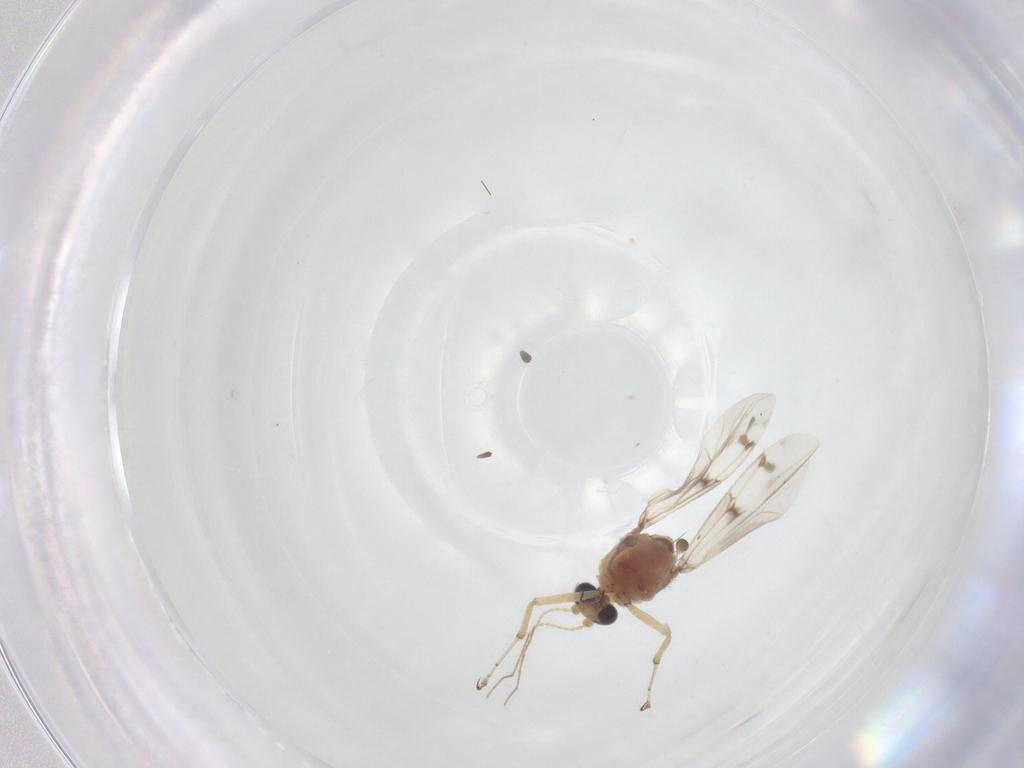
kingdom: Animalia
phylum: Arthropoda
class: Insecta
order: Diptera
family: Ceratopogonidae
